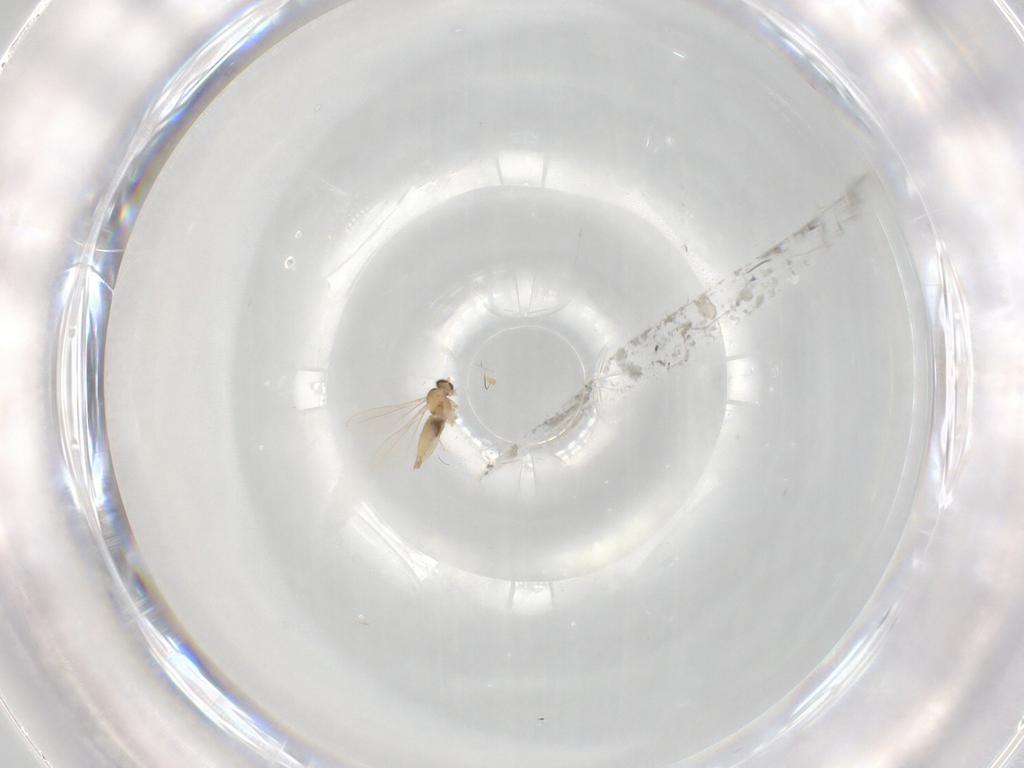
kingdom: Animalia
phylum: Arthropoda
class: Insecta
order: Diptera
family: Cecidomyiidae
